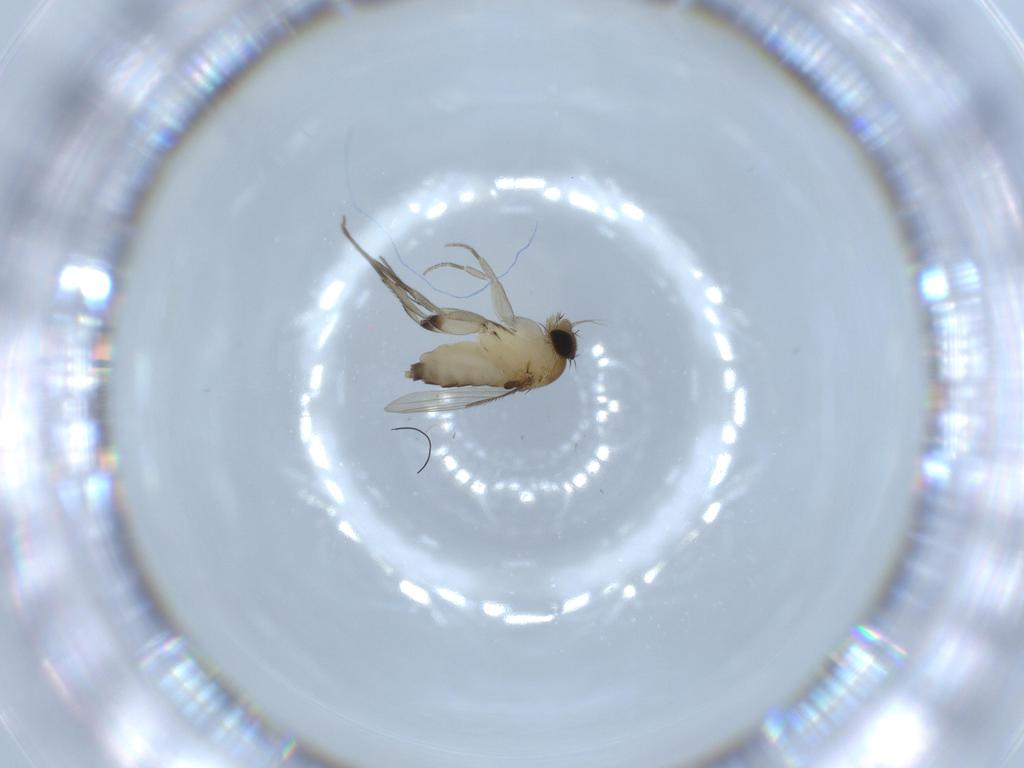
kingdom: Animalia
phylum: Arthropoda
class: Insecta
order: Diptera
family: Phoridae
